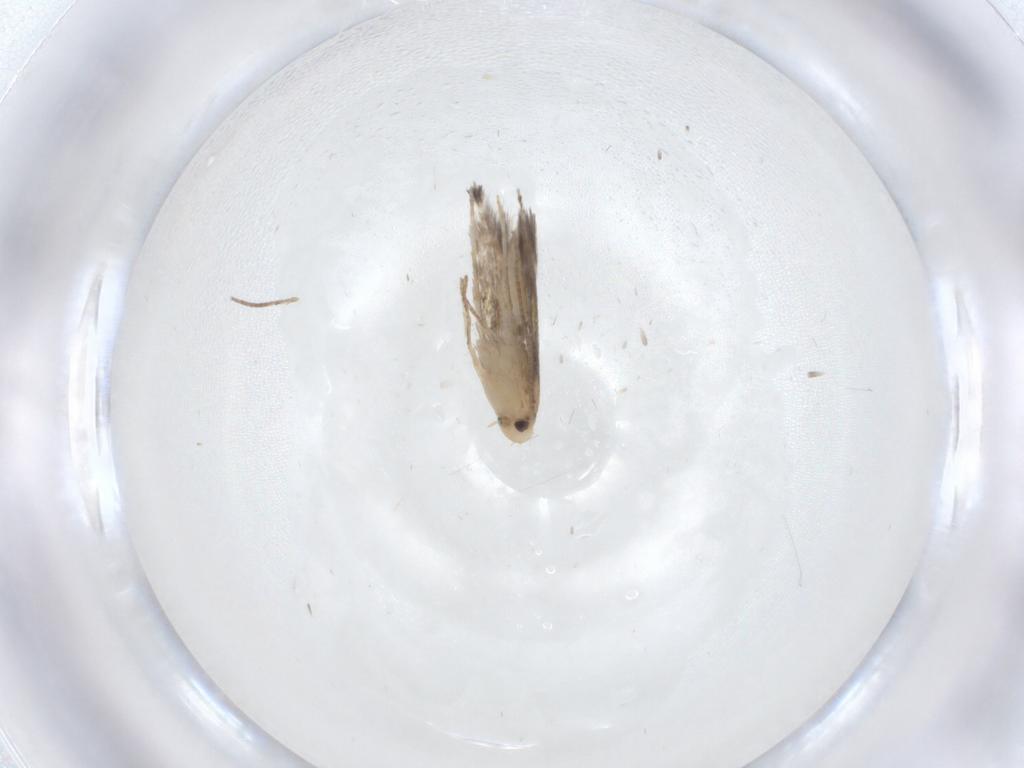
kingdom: Animalia
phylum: Arthropoda
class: Insecta
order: Lepidoptera
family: Gracillariidae
